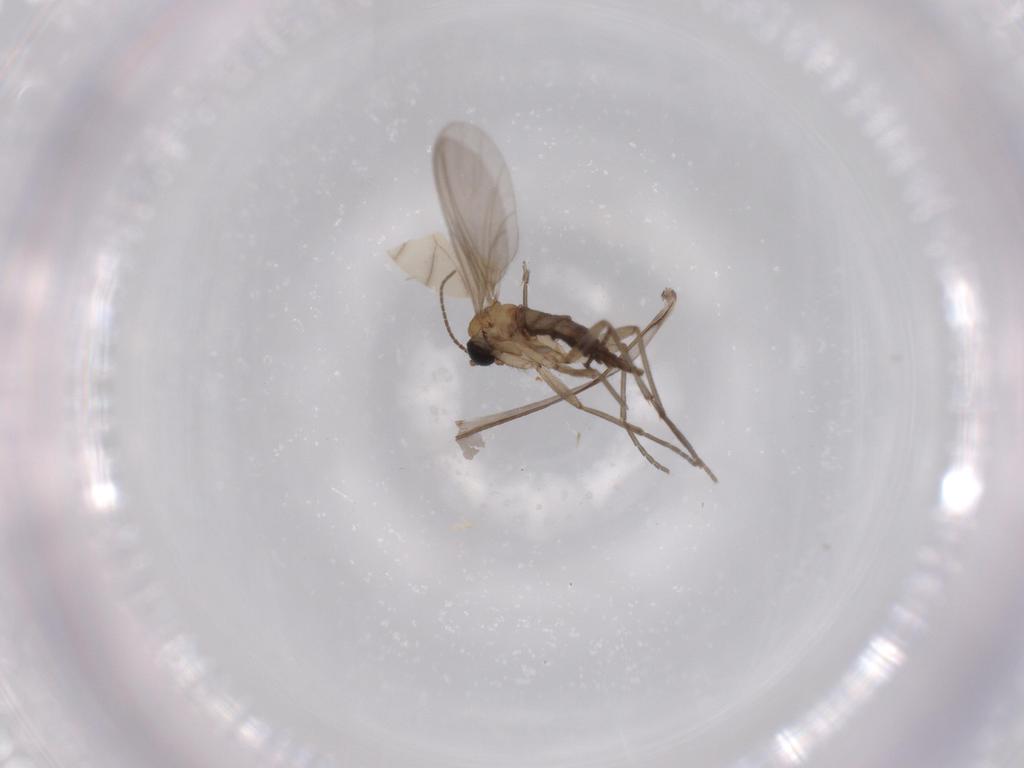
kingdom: Animalia
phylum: Arthropoda
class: Insecta
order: Diptera
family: Sciaridae
